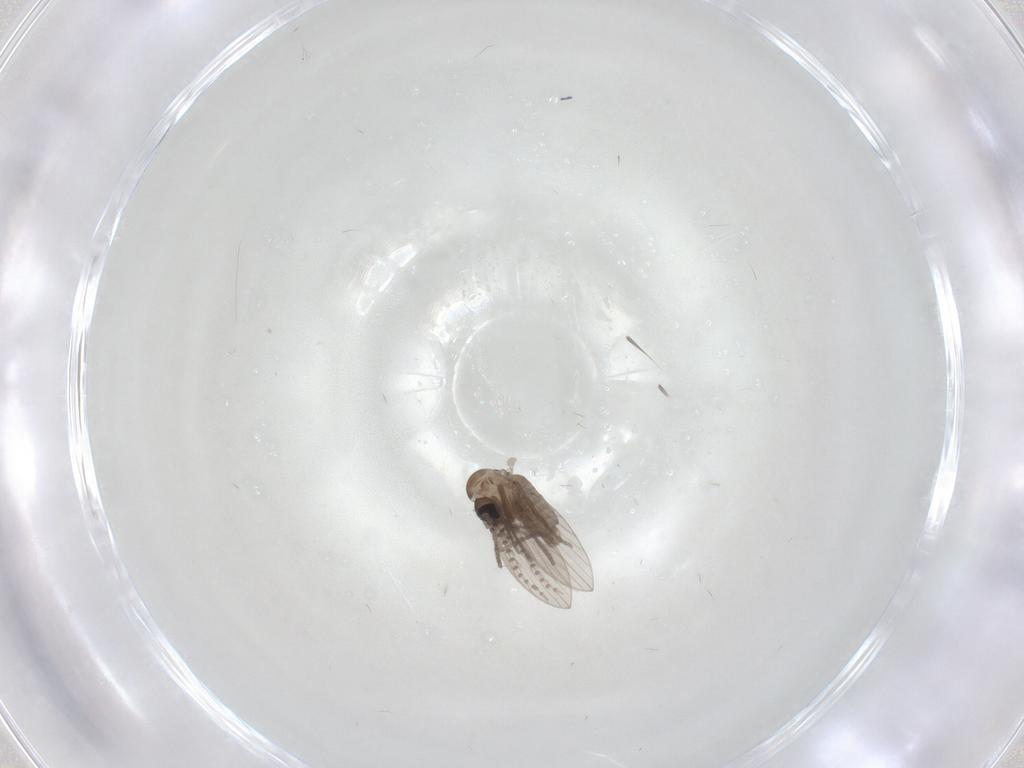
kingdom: Animalia
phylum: Arthropoda
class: Insecta
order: Diptera
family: Psychodidae
